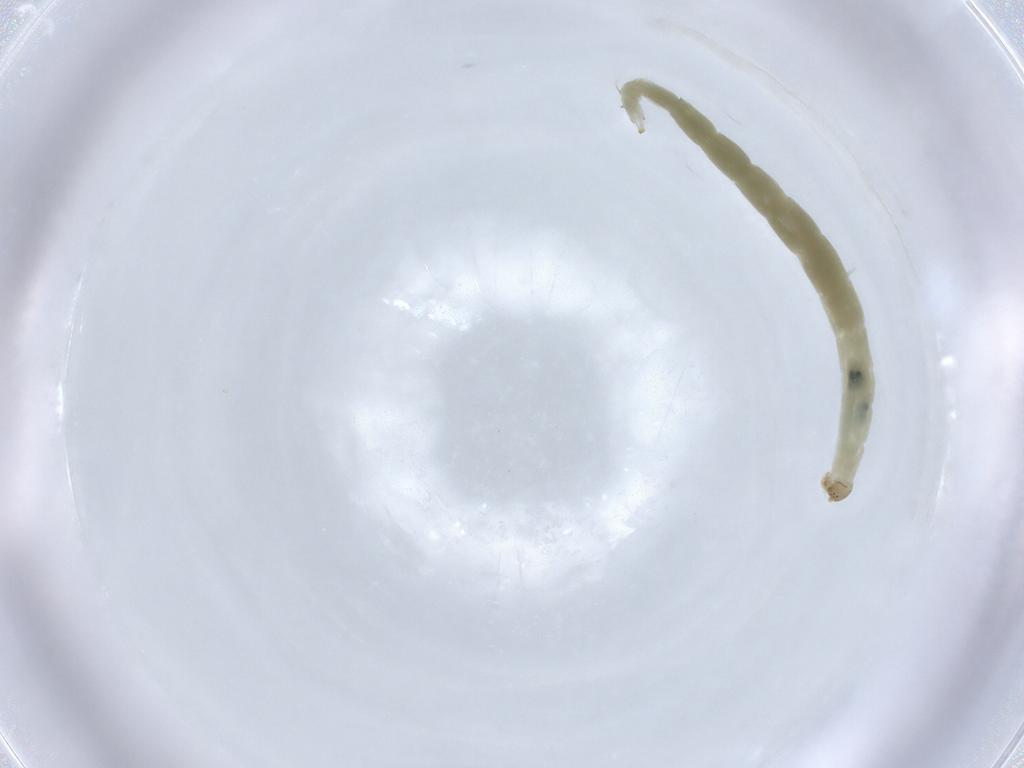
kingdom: Animalia
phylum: Arthropoda
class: Insecta
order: Diptera
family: Chironomidae
